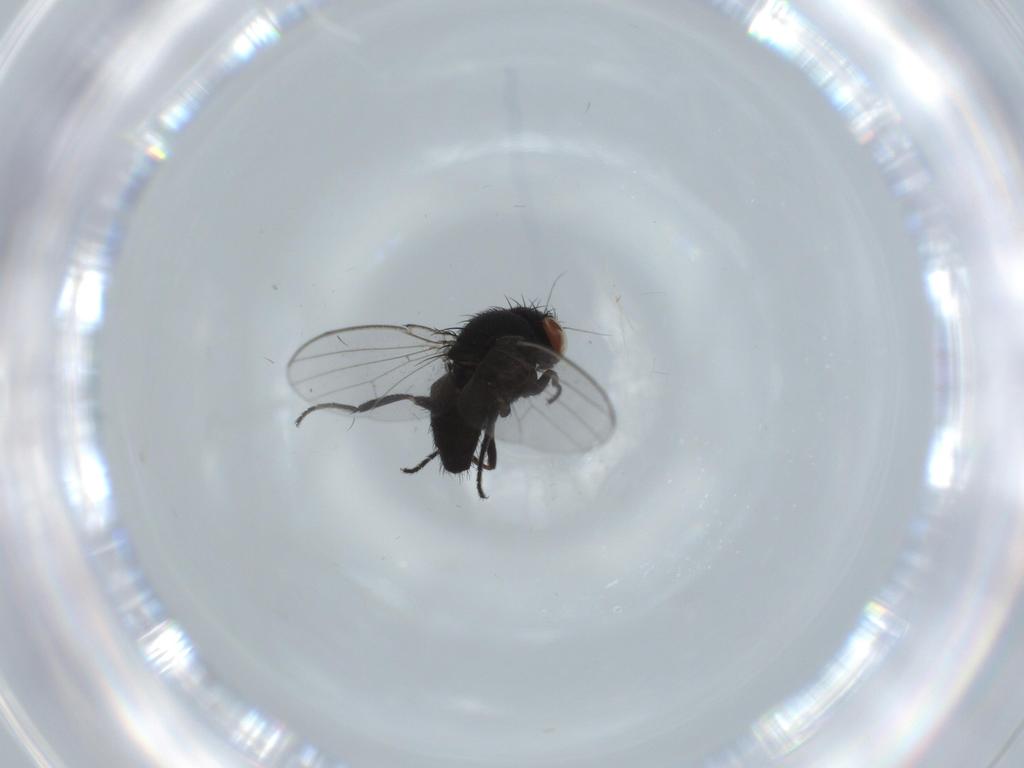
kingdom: Animalia
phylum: Arthropoda
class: Insecta
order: Diptera
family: Milichiidae
